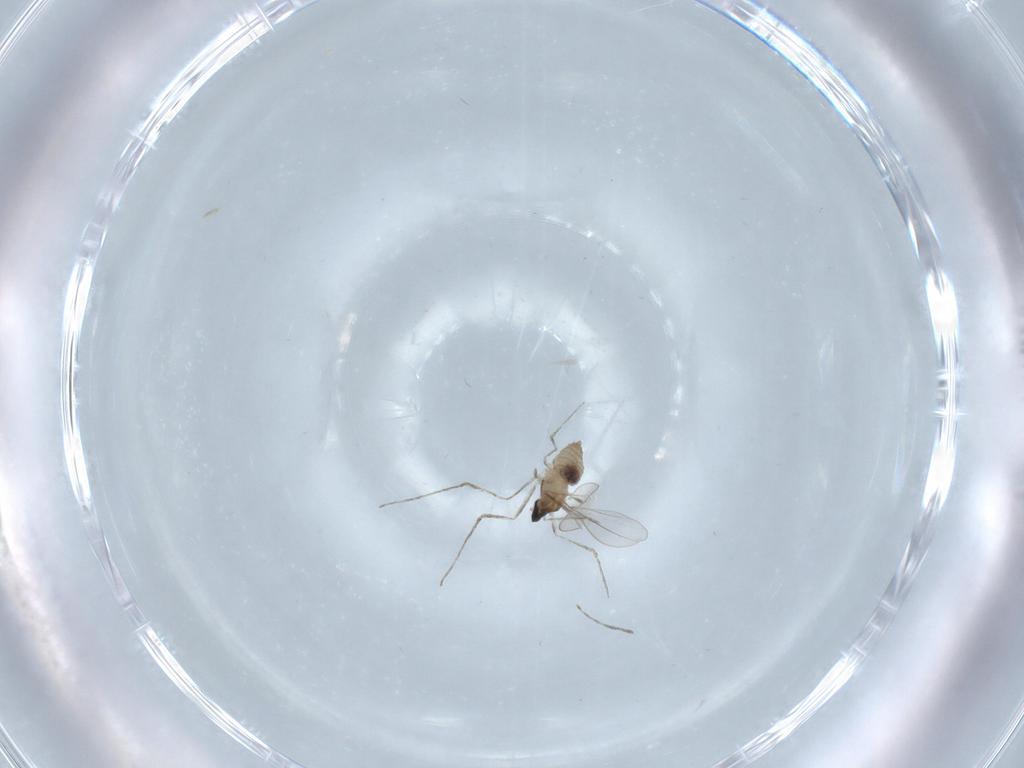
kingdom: Animalia
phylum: Arthropoda
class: Insecta
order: Diptera
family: Cecidomyiidae
